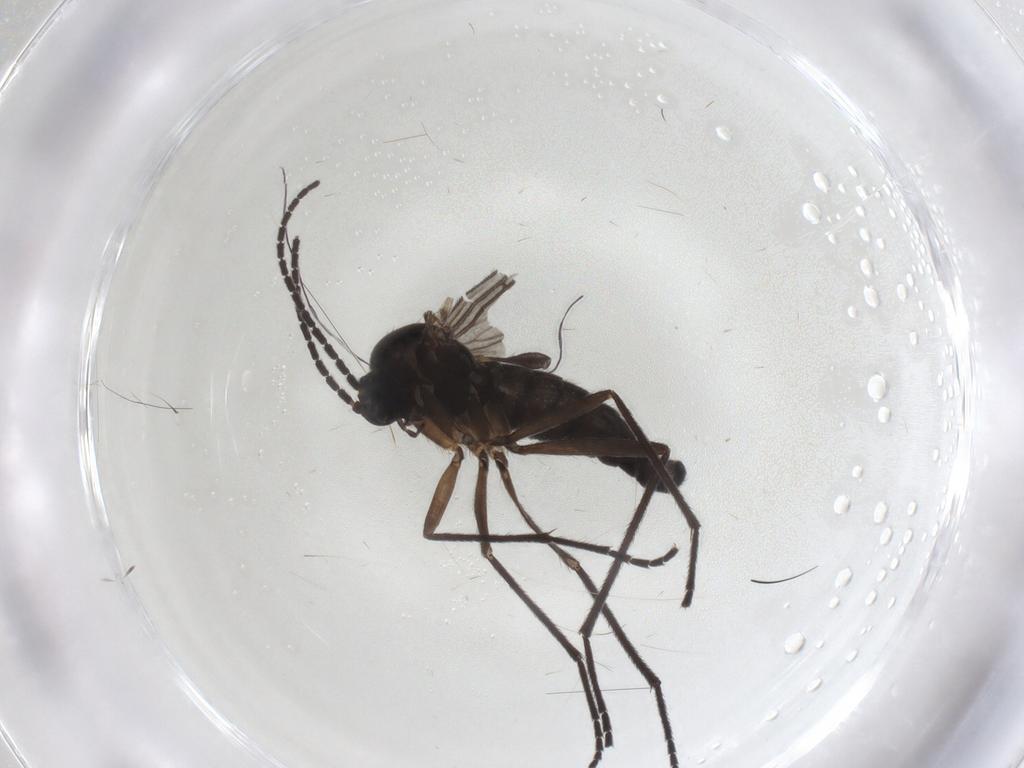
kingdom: Animalia
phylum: Arthropoda
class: Insecta
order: Diptera
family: Sciaridae
